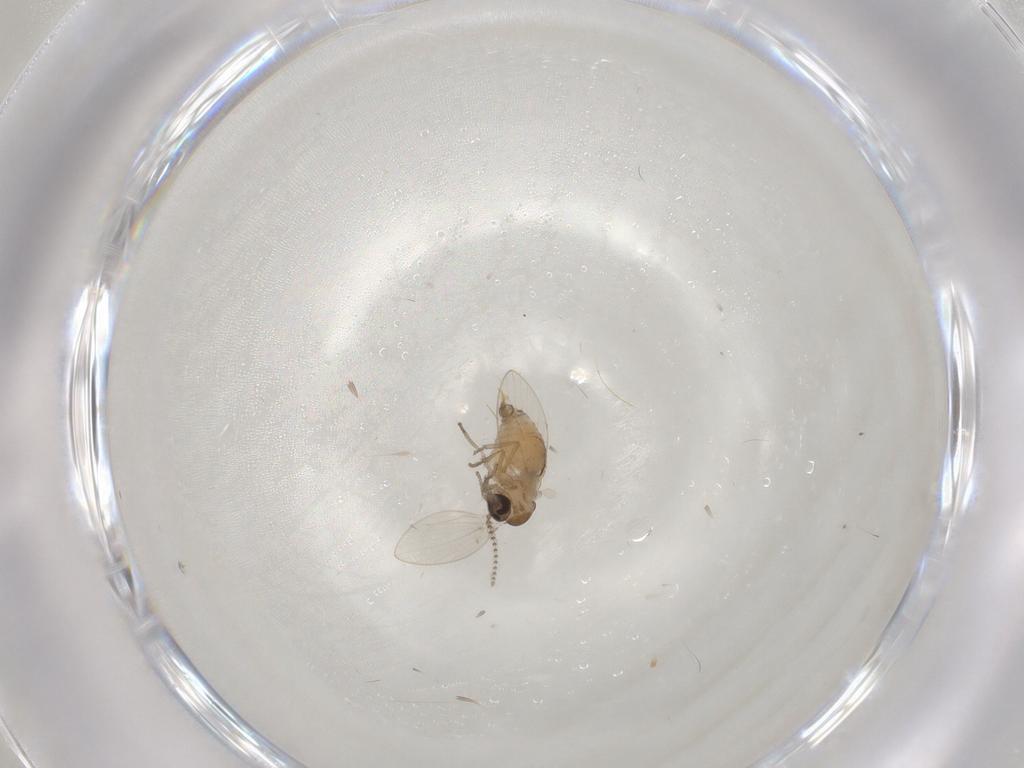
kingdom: Animalia
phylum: Arthropoda
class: Insecta
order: Diptera
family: Psychodidae
